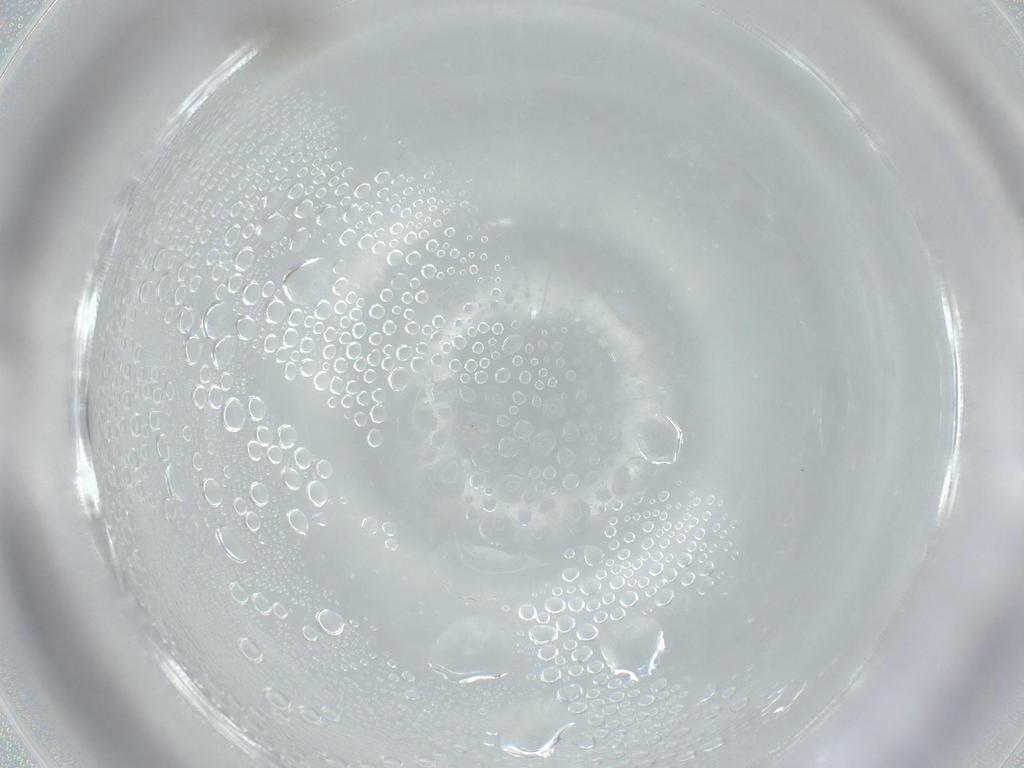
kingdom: Animalia
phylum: Arthropoda
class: Insecta
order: Diptera
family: Chironomidae
